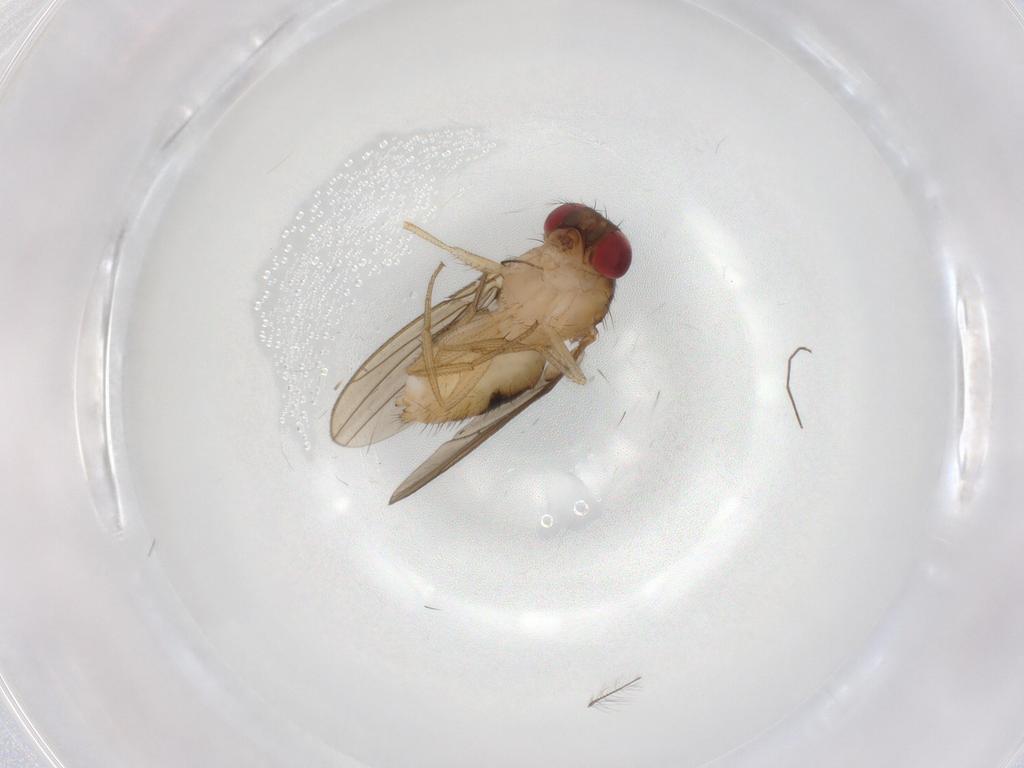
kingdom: Animalia
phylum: Arthropoda
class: Insecta
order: Diptera
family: Drosophilidae
